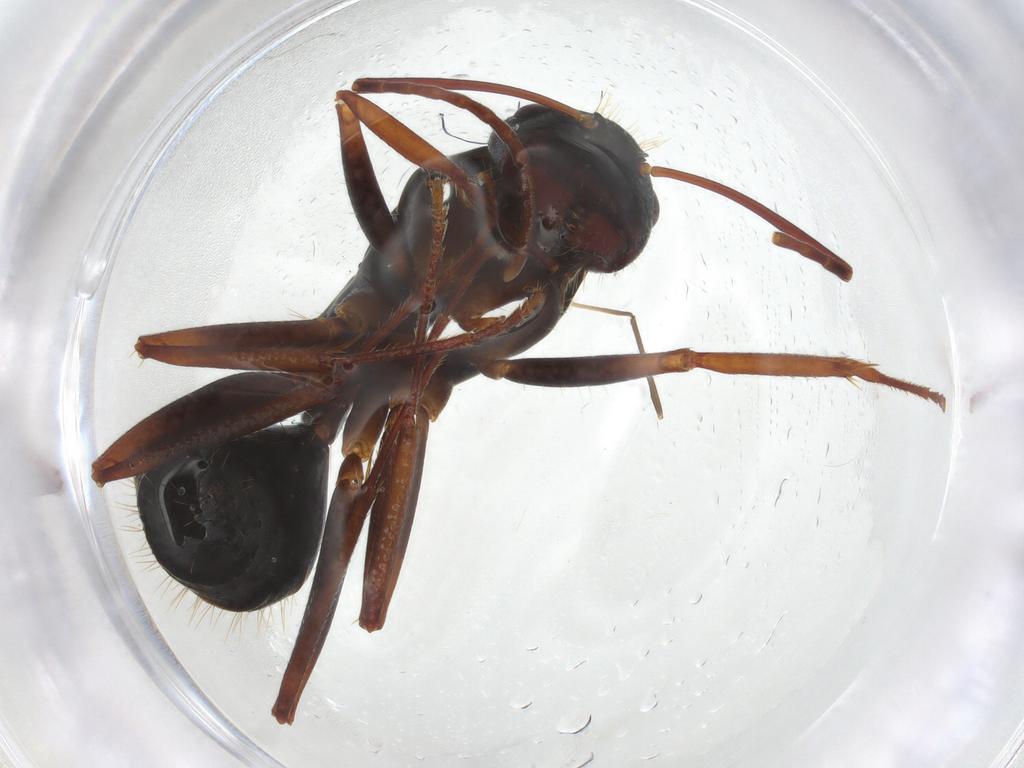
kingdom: Animalia
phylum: Arthropoda
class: Insecta
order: Hymenoptera
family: Formicidae
